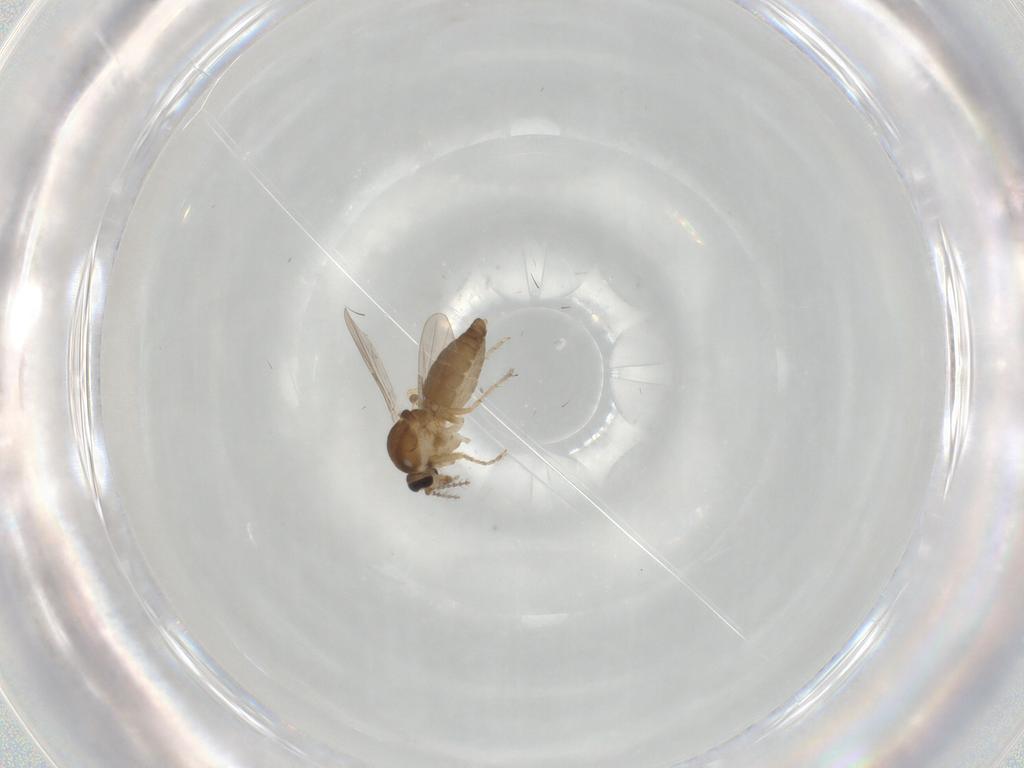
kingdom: Animalia
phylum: Arthropoda
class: Insecta
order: Diptera
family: Ceratopogonidae
